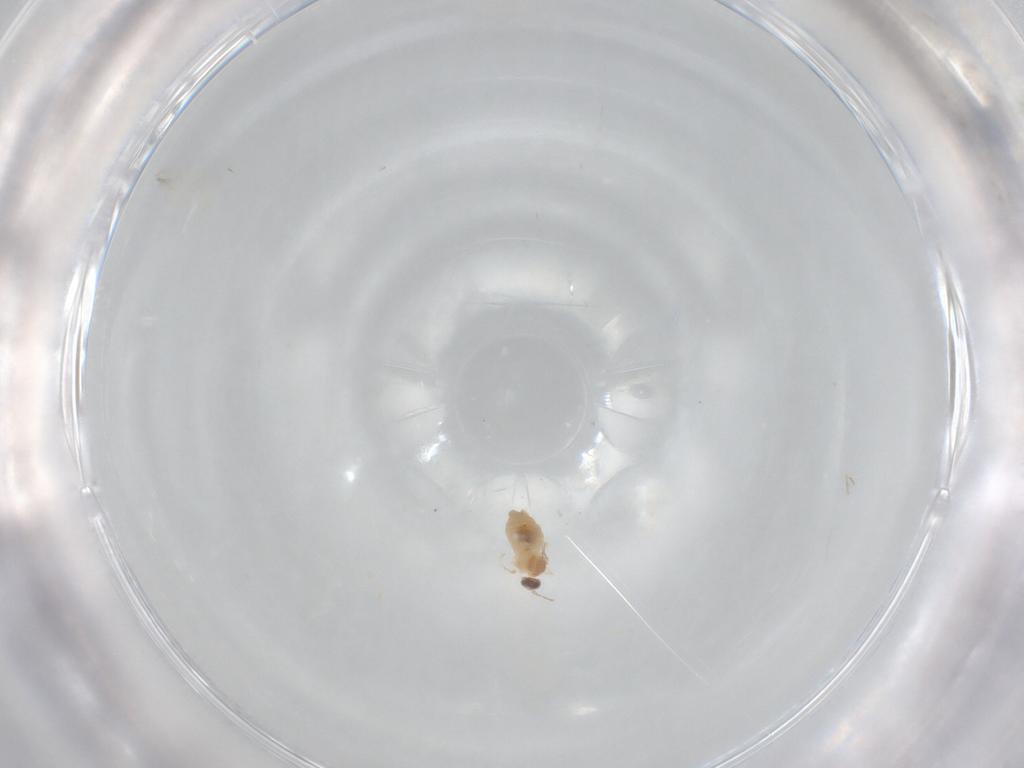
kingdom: Animalia
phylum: Arthropoda
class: Insecta
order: Diptera
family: Cecidomyiidae
